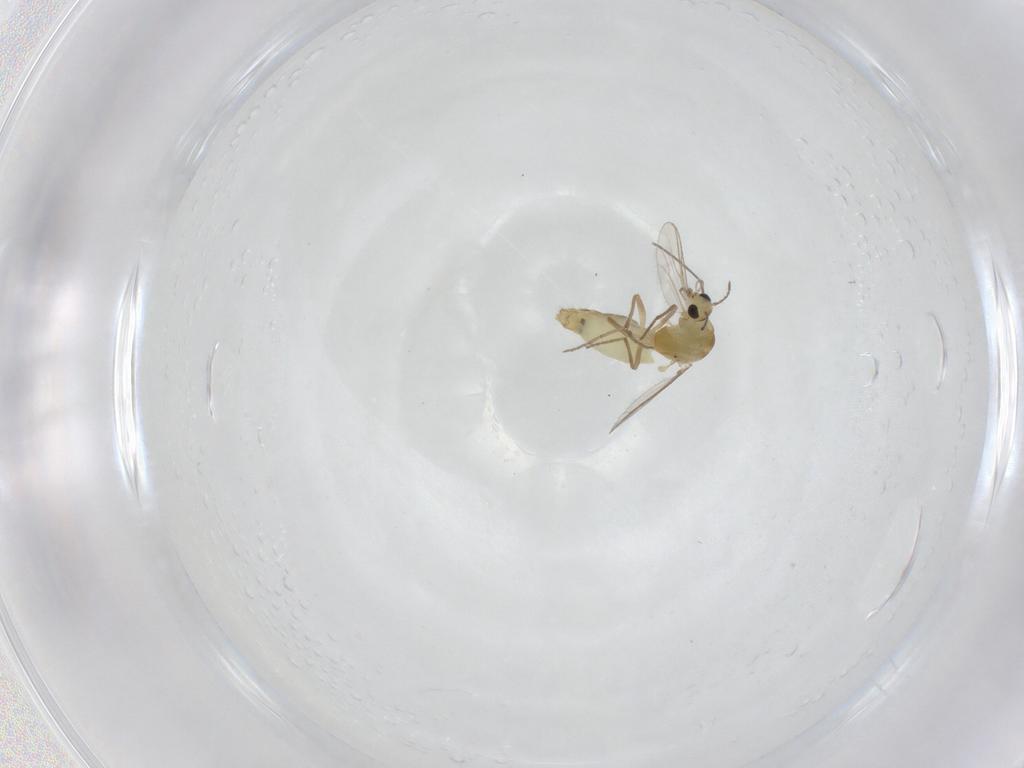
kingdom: Animalia
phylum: Arthropoda
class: Insecta
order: Diptera
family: Chironomidae
